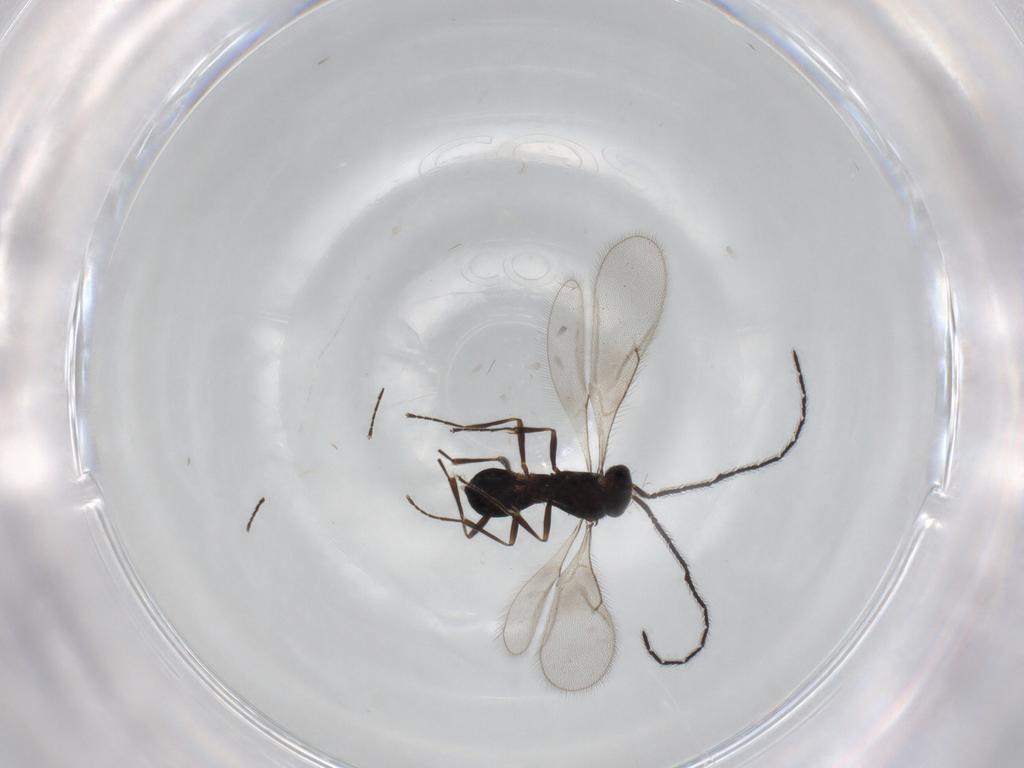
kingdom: Animalia
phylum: Arthropoda
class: Insecta
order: Hymenoptera
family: Scelionidae
